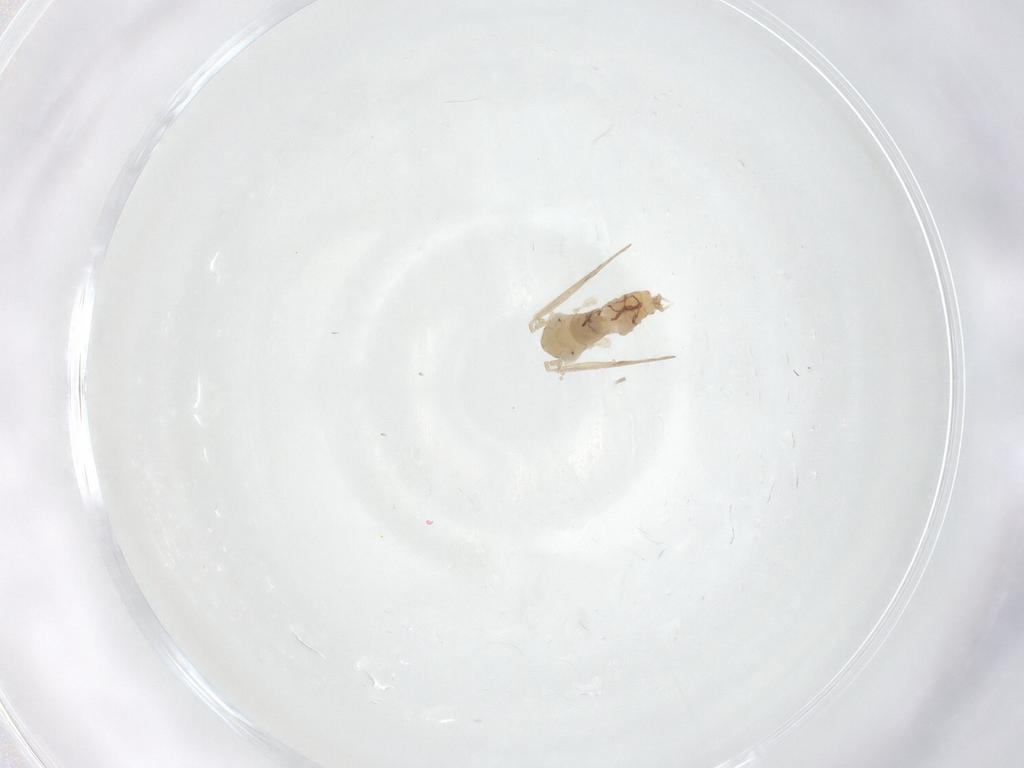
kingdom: Animalia
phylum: Arthropoda
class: Insecta
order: Diptera
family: Psychodidae
